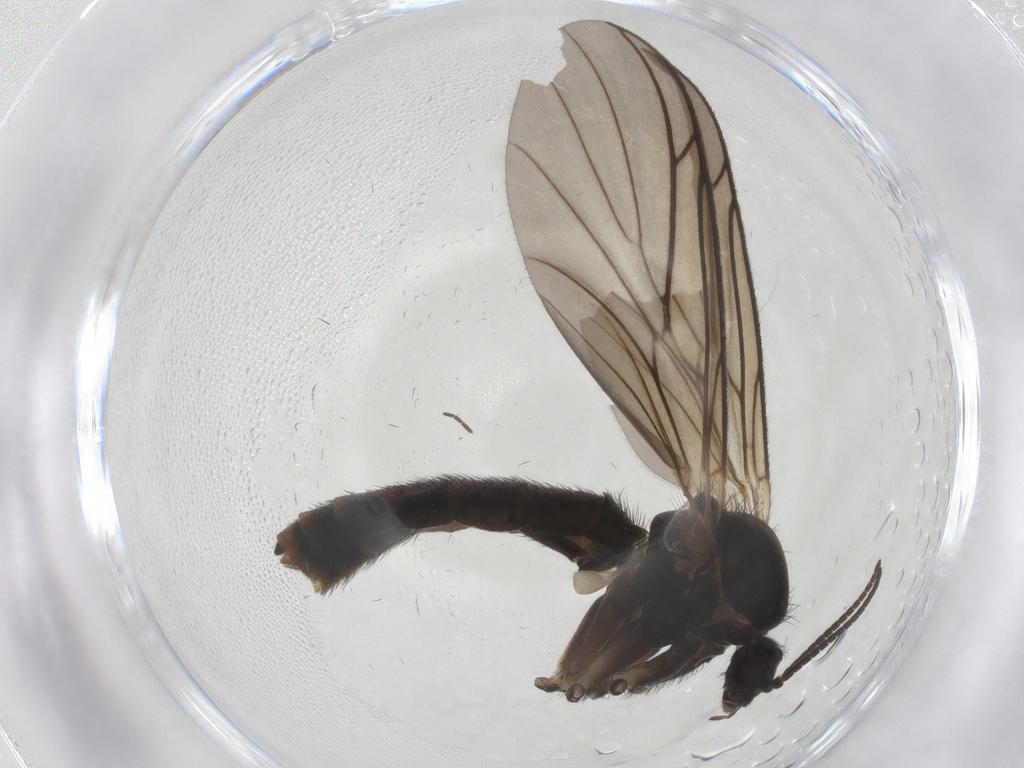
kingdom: Animalia
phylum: Arthropoda
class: Insecta
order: Diptera
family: Keroplatidae
